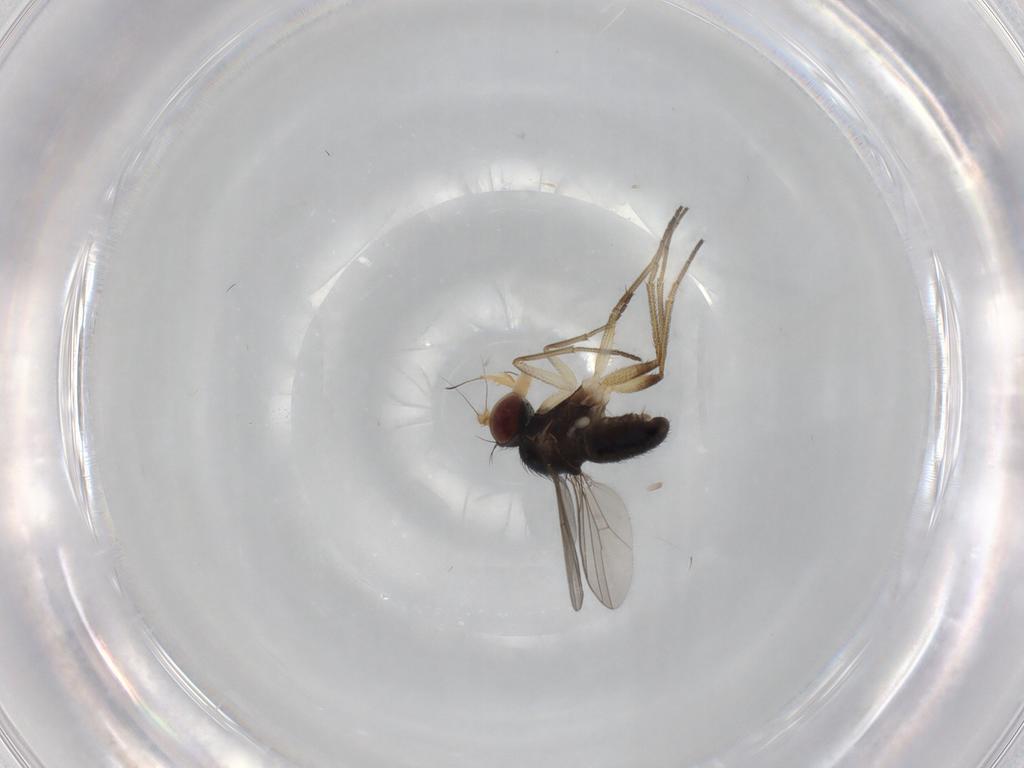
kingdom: Animalia
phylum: Arthropoda
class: Insecta
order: Diptera
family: Dolichopodidae
